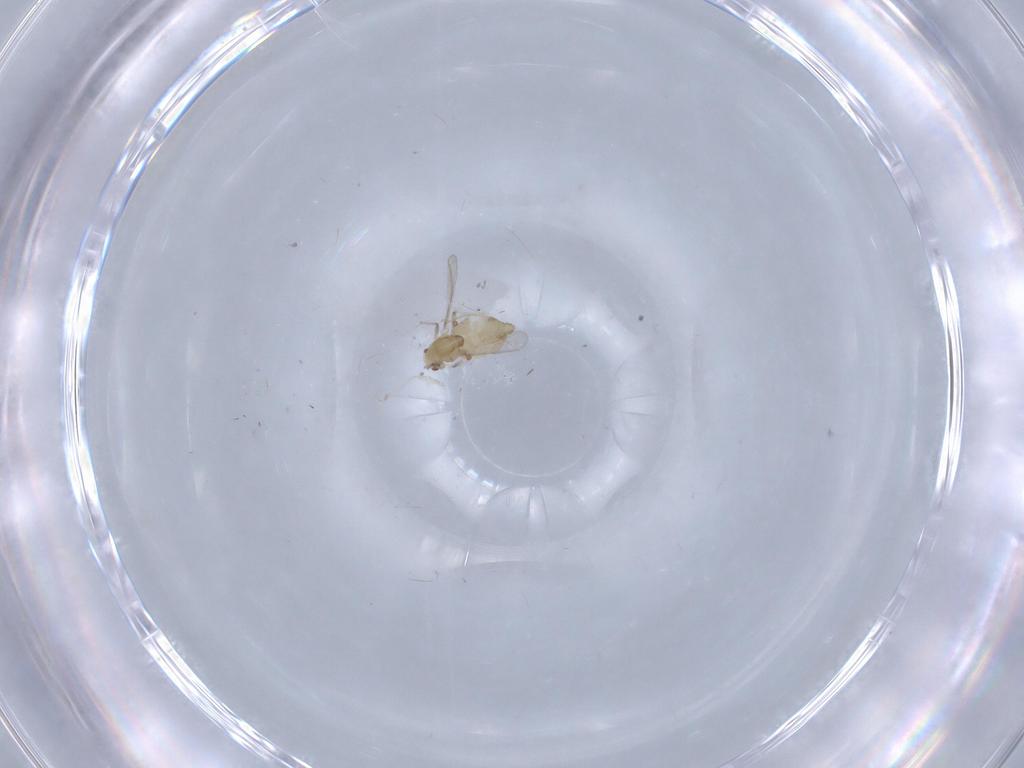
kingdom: Animalia
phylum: Arthropoda
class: Insecta
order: Diptera
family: Chironomidae
